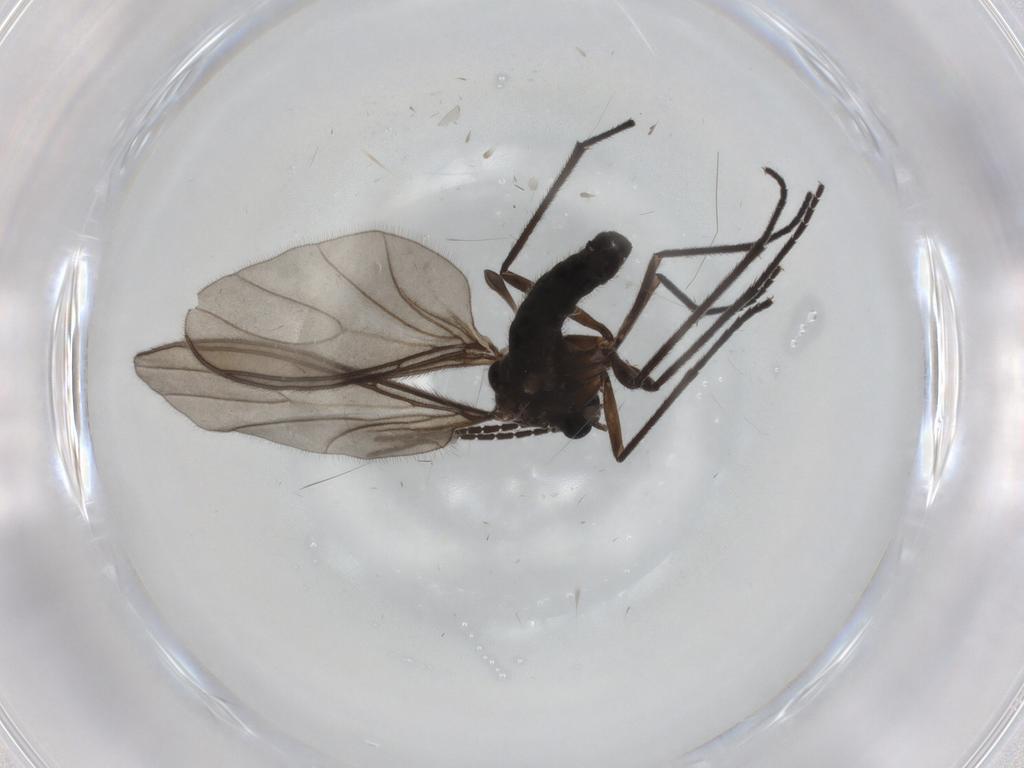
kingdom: Animalia
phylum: Arthropoda
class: Insecta
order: Diptera
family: Sciaridae
